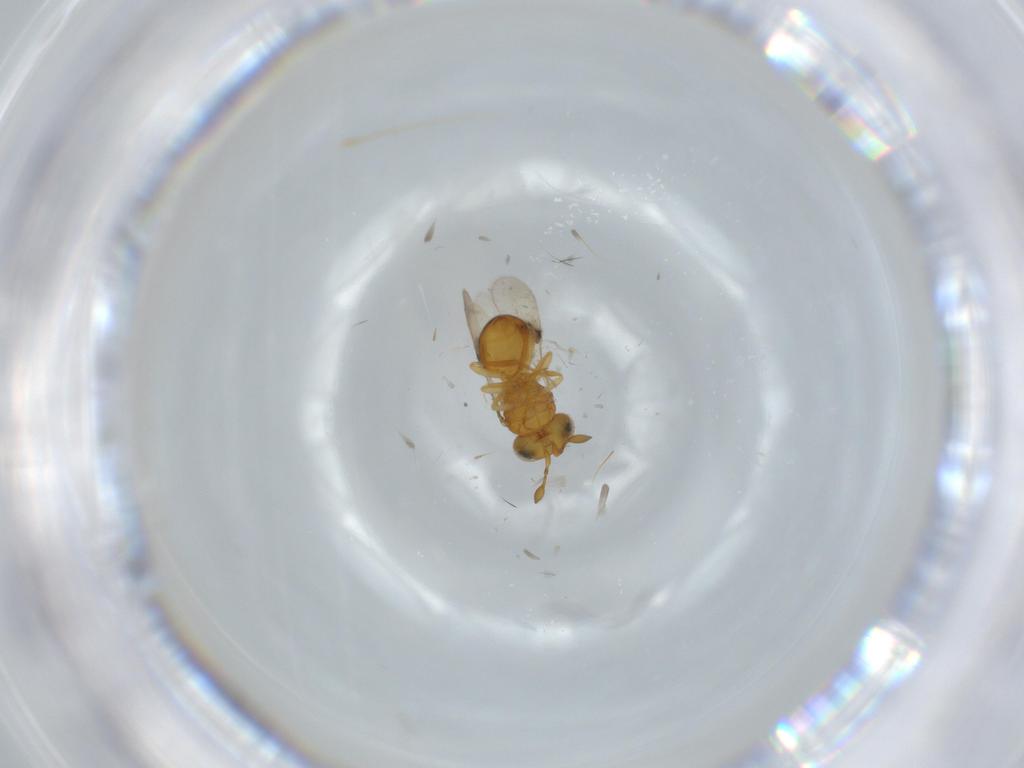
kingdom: Animalia
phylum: Arthropoda
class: Insecta
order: Hymenoptera
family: Scelionidae
